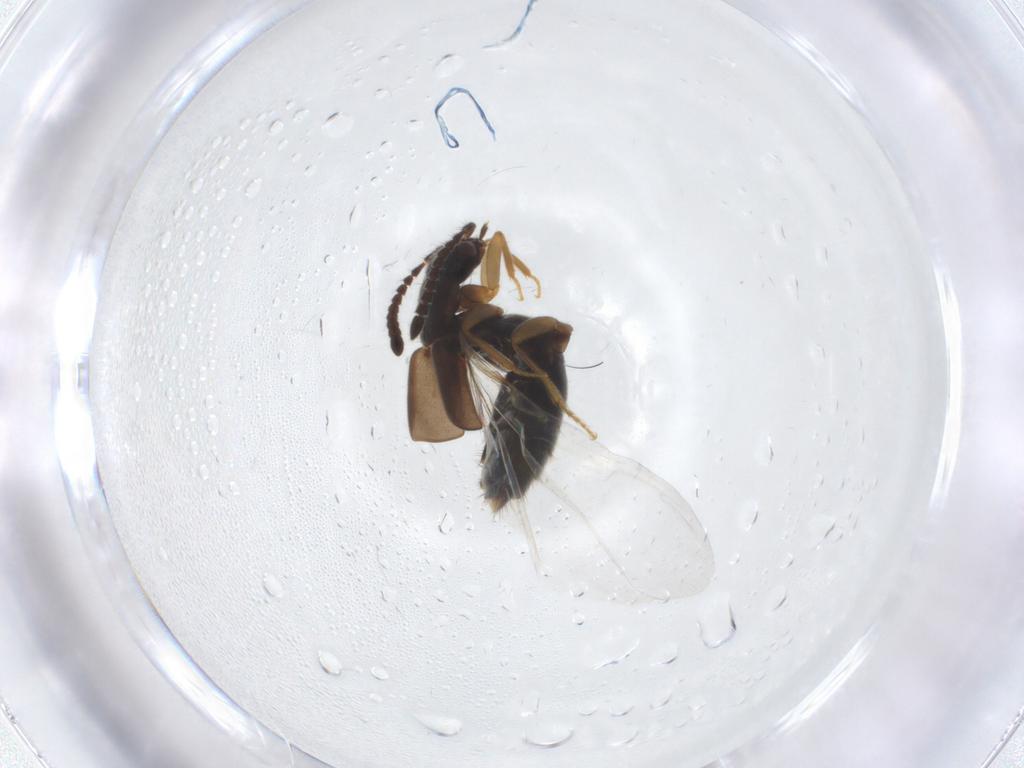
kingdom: Animalia
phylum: Arthropoda
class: Insecta
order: Coleoptera
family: Staphylinidae
